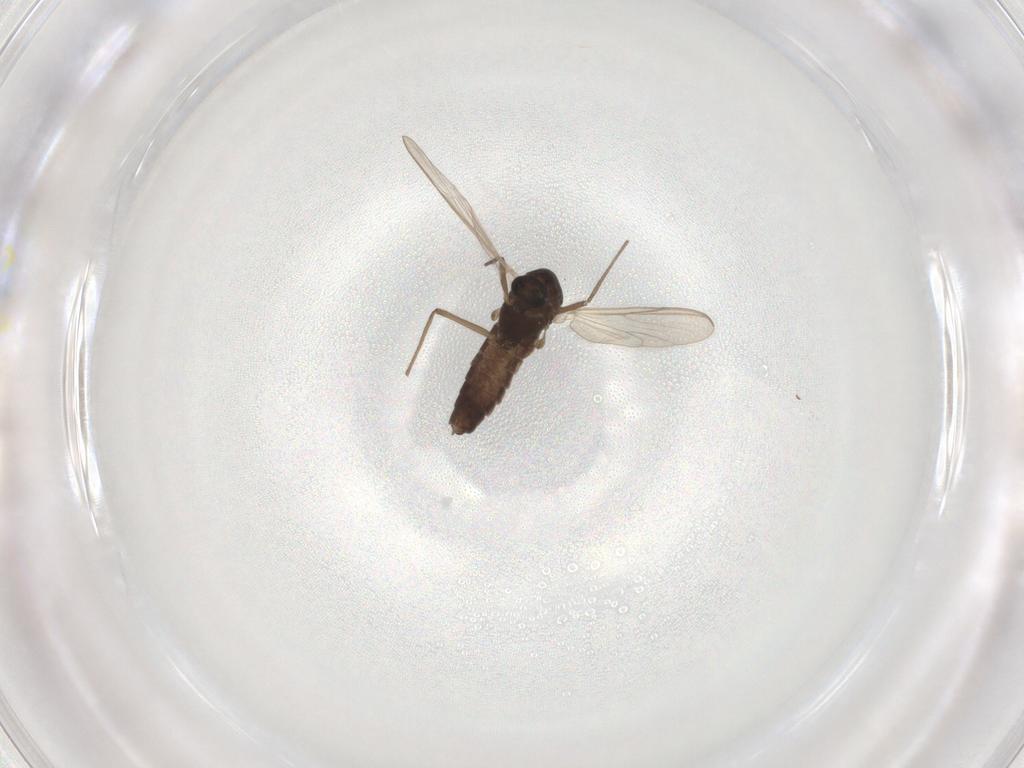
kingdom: Animalia
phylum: Arthropoda
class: Insecta
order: Diptera
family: Chironomidae
